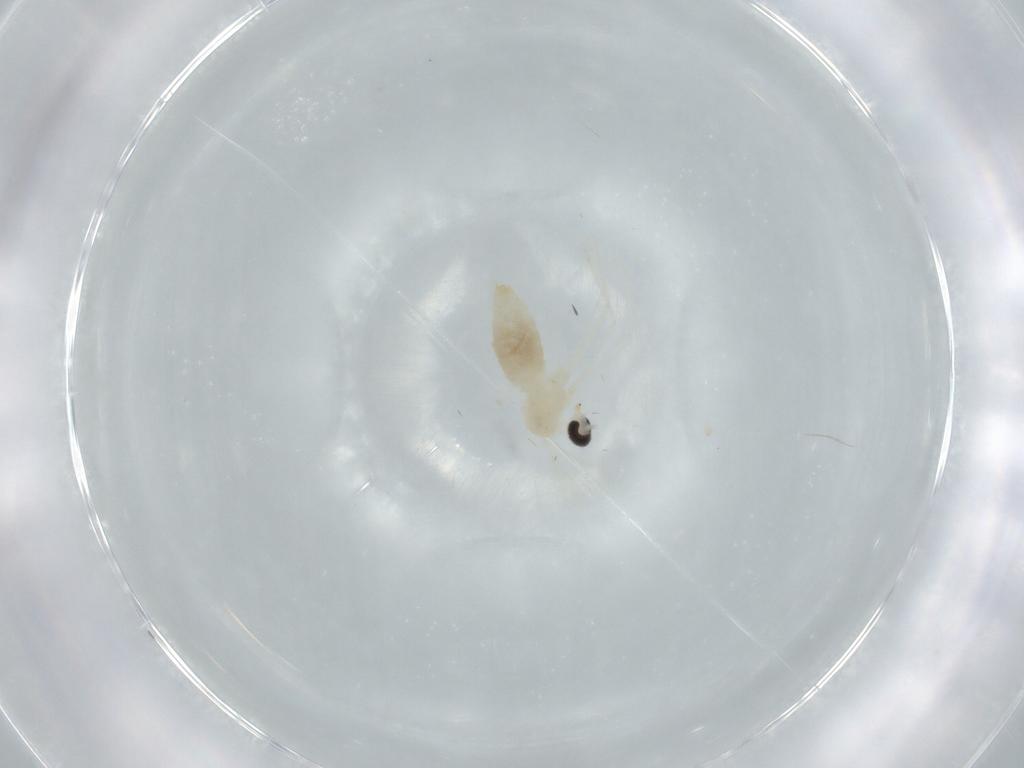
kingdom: Animalia
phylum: Arthropoda
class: Insecta
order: Diptera
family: Cecidomyiidae
